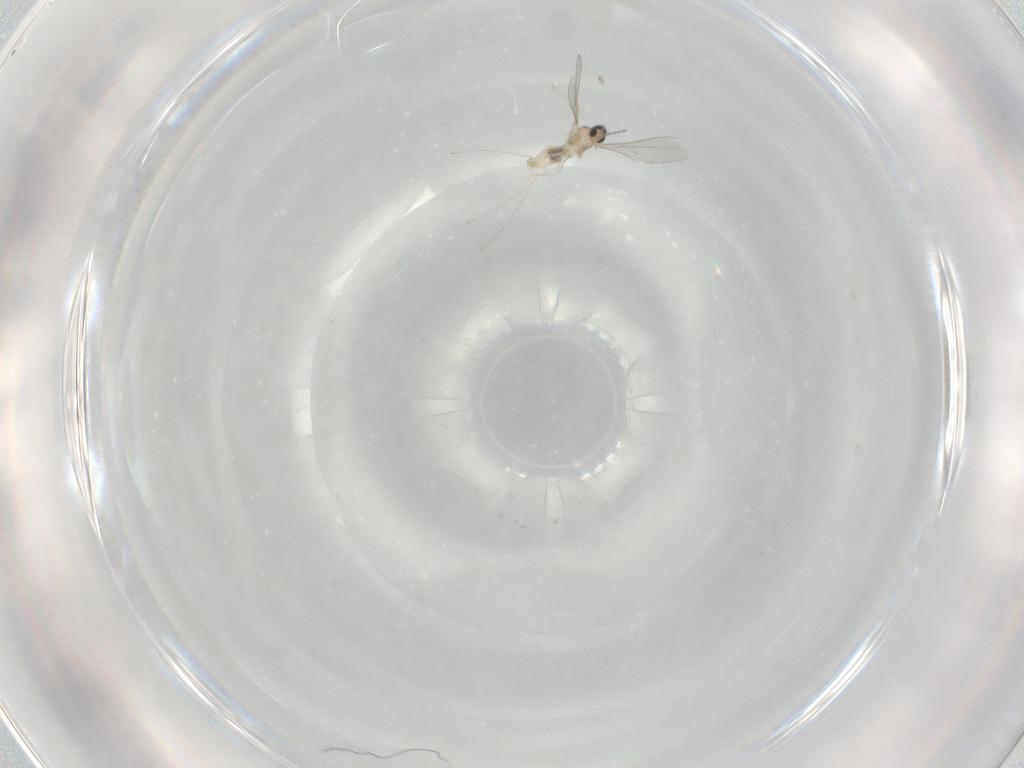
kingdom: Animalia
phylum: Arthropoda
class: Insecta
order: Diptera
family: Cecidomyiidae
